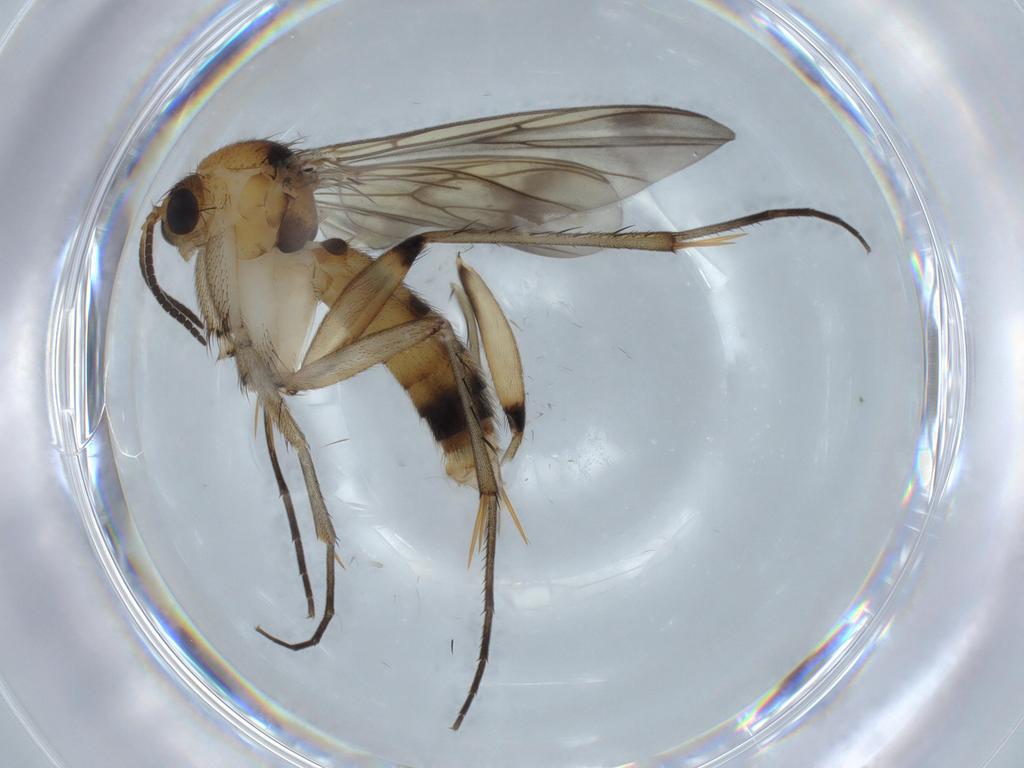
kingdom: Animalia
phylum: Arthropoda
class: Insecta
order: Diptera
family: Mycetophilidae
